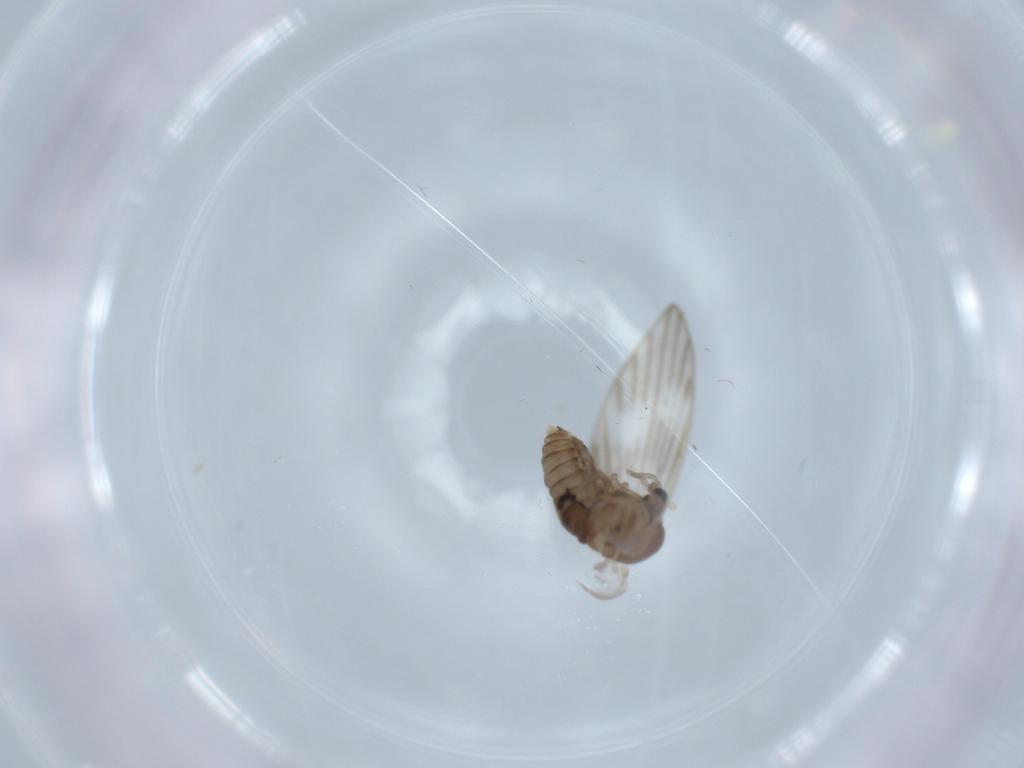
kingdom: Animalia
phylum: Arthropoda
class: Insecta
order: Diptera
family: Psychodidae
